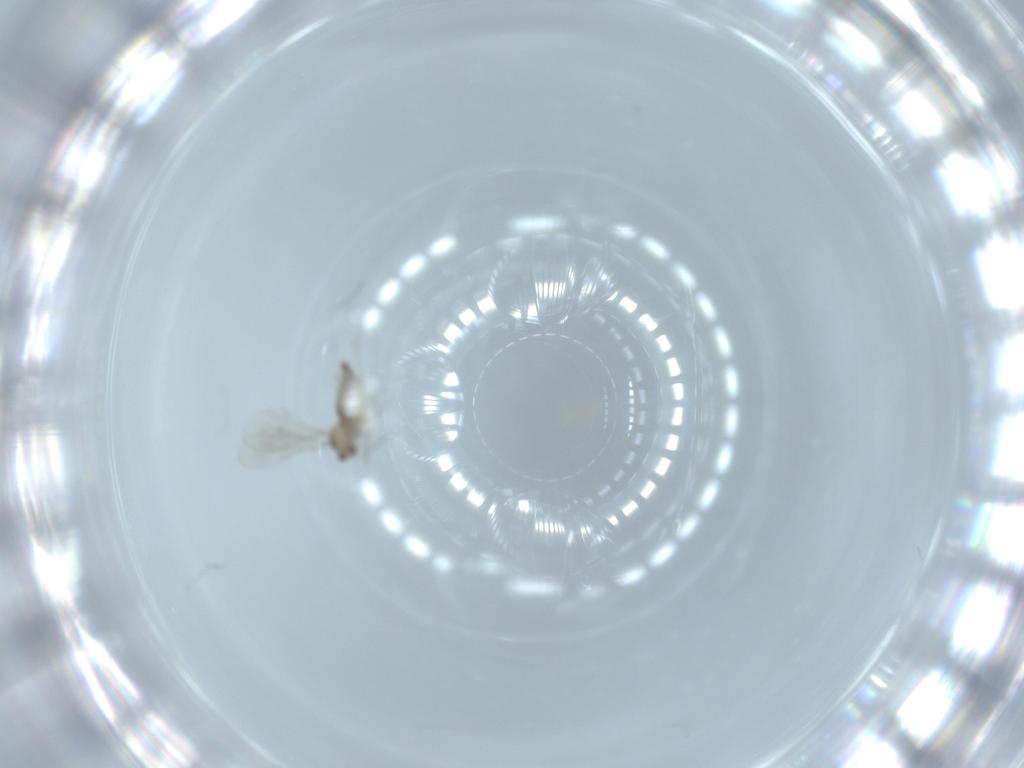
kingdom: Animalia
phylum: Arthropoda
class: Insecta
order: Diptera
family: Cecidomyiidae
